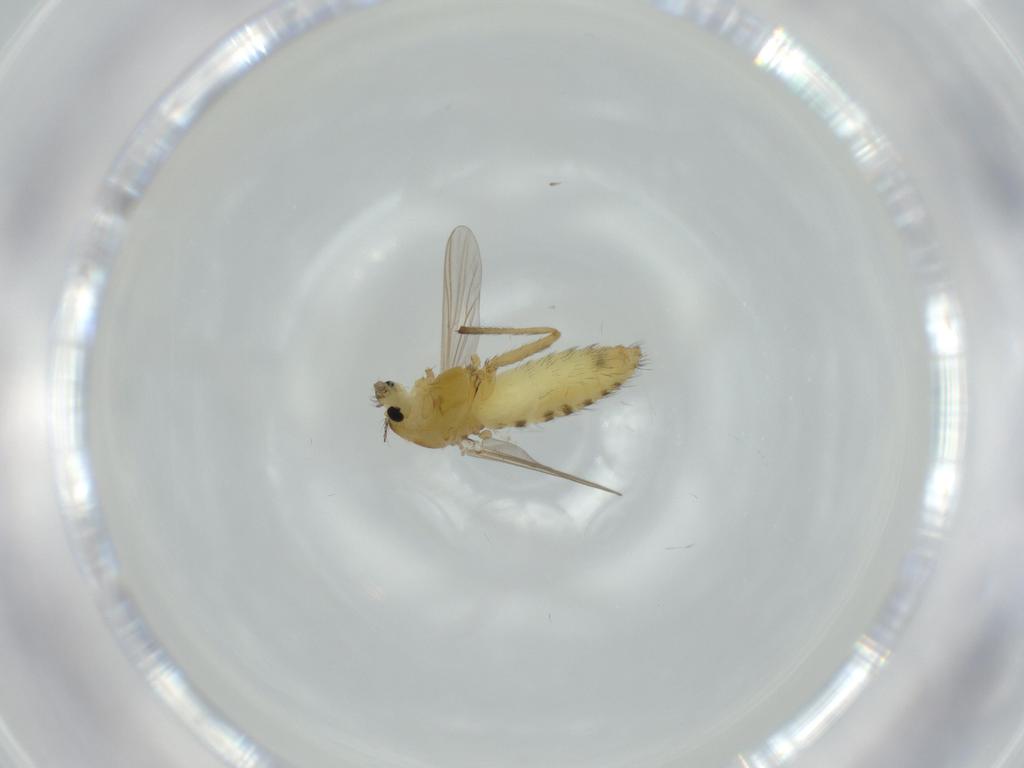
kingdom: Animalia
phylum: Arthropoda
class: Insecta
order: Diptera
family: Chironomidae
